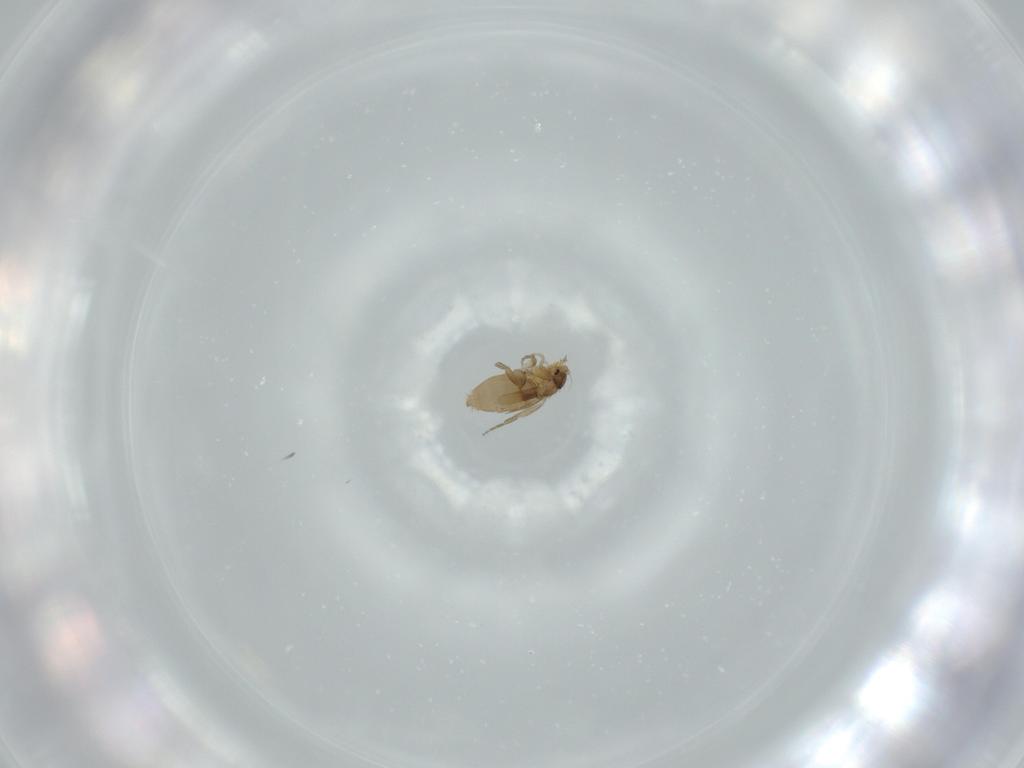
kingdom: Animalia
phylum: Arthropoda
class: Insecta
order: Diptera
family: Phoridae
